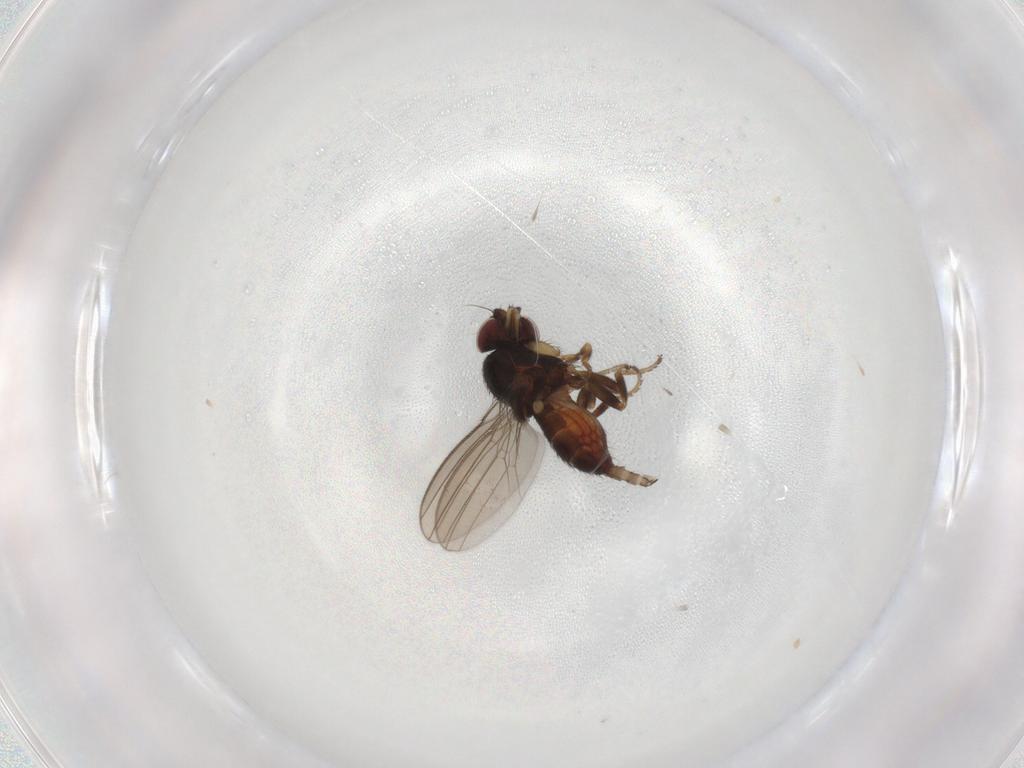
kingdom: Animalia
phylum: Arthropoda
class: Insecta
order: Diptera
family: Milichiidae
